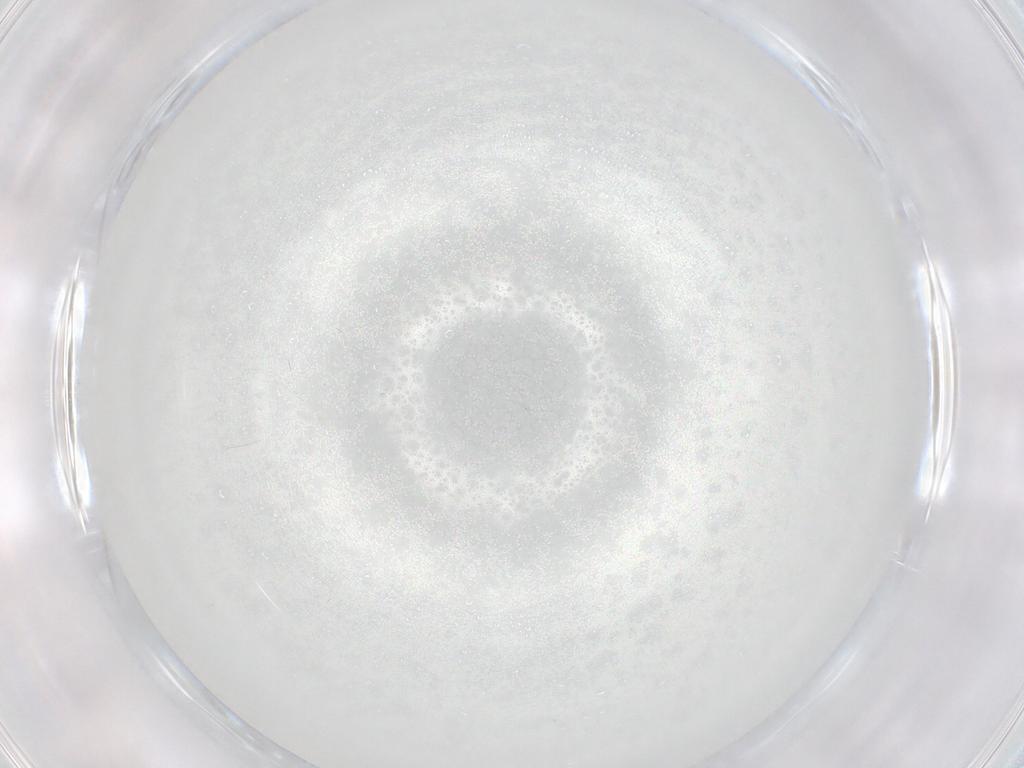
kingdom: Animalia
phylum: Arthropoda
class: Insecta
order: Diptera
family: Cecidomyiidae
